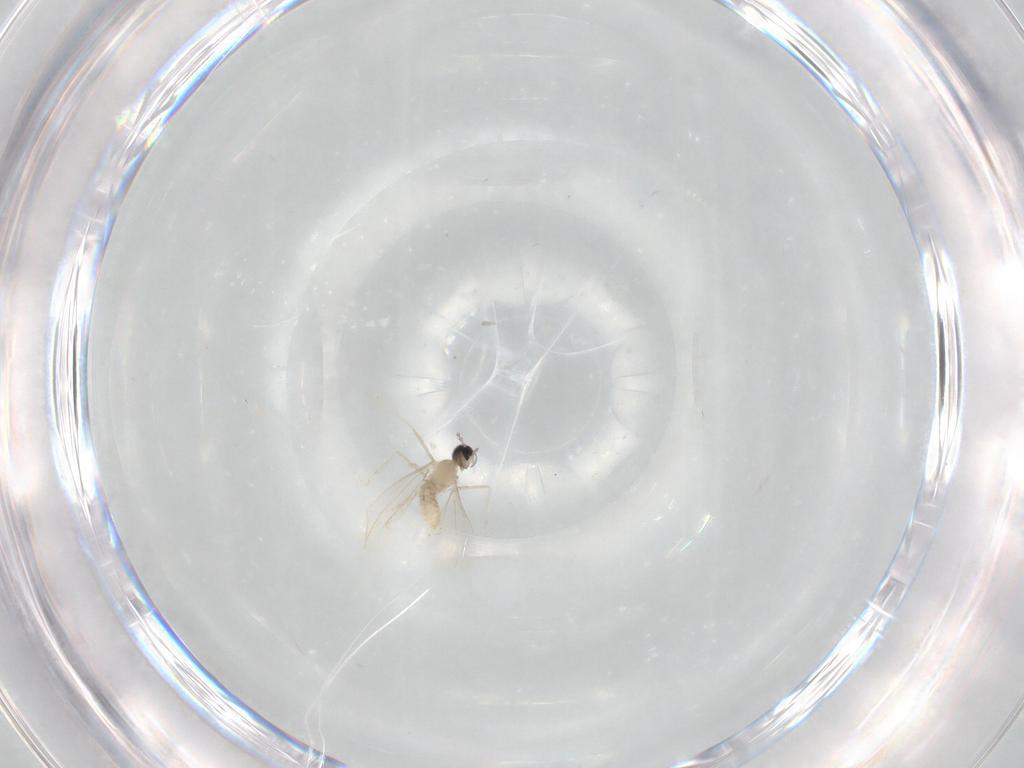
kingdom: Animalia
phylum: Arthropoda
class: Insecta
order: Diptera
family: Cecidomyiidae
